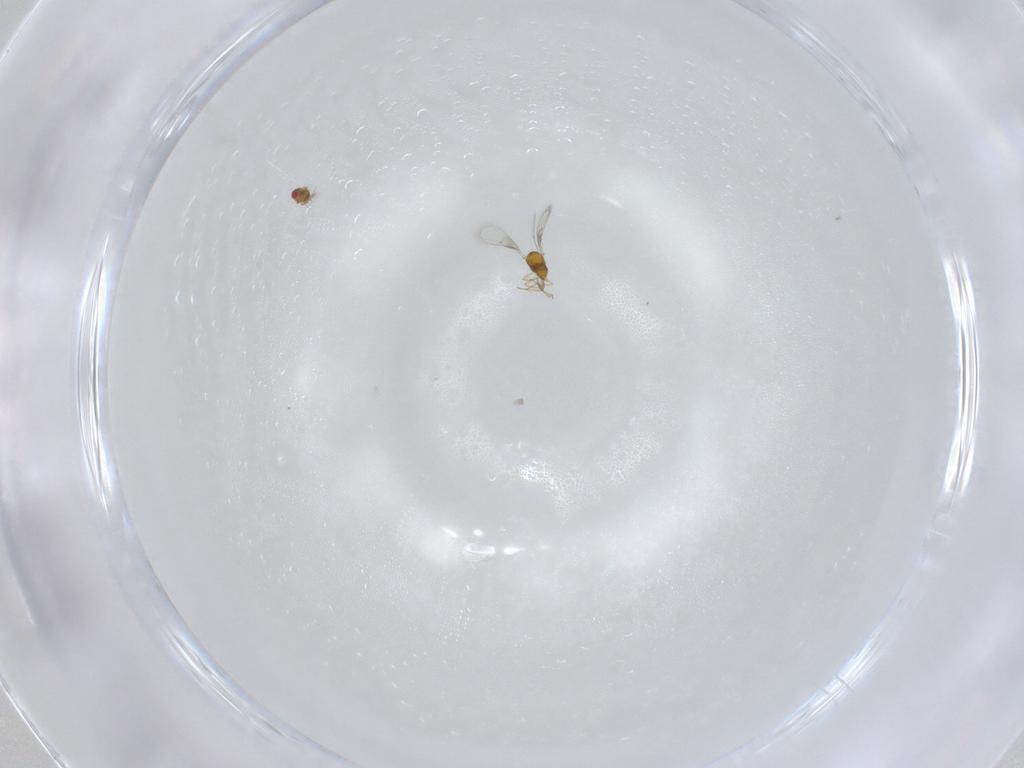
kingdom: Animalia
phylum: Arthropoda
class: Insecta
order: Hymenoptera
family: Trichogrammatidae
